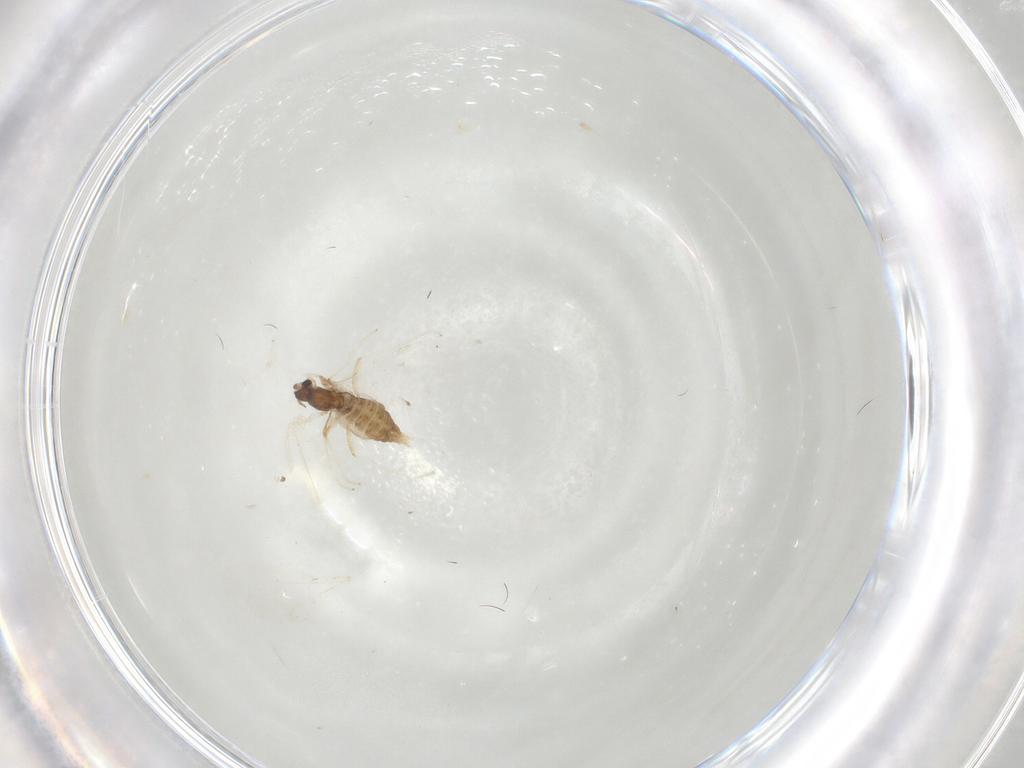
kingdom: Animalia
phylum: Arthropoda
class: Insecta
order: Diptera
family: Cecidomyiidae
